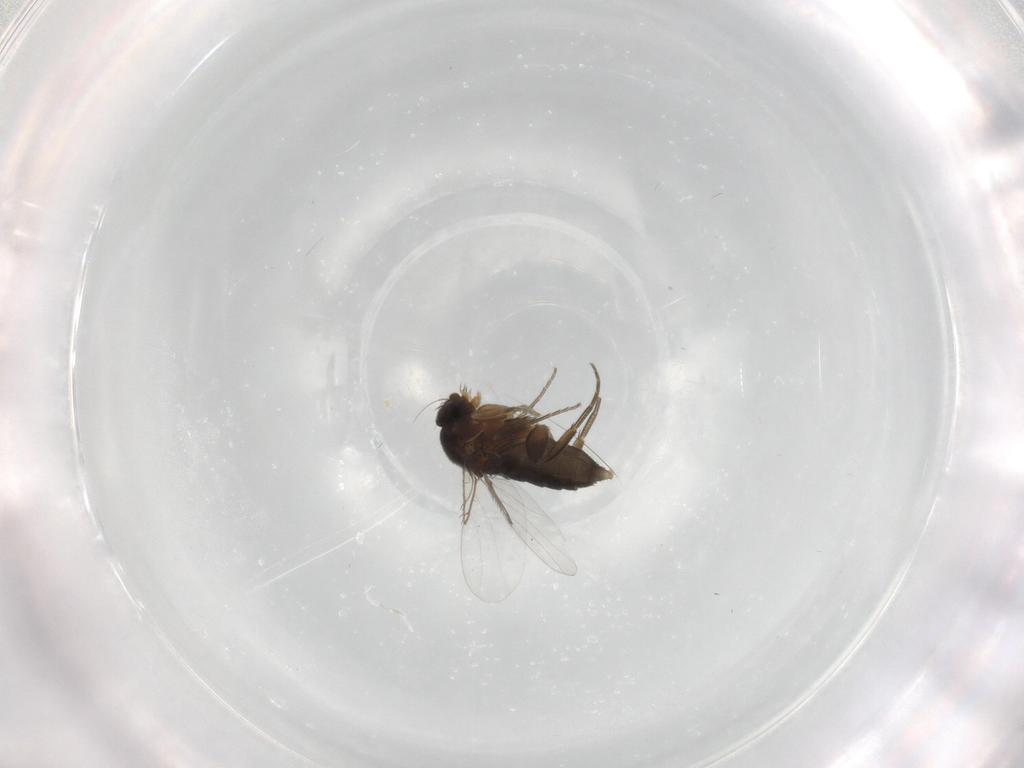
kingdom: Animalia
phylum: Arthropoda
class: Insecta
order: Diptera
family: Phoridae
